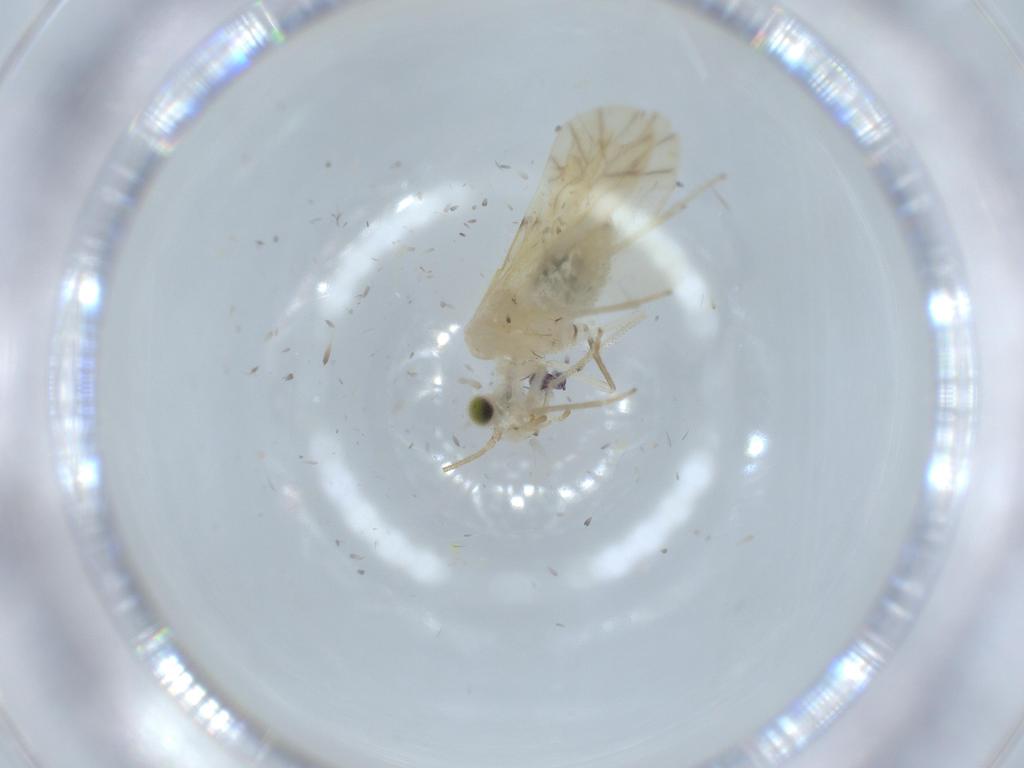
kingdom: Animalia
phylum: Arthropoda
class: Insecta
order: Psocodea
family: Caeciliusidae
